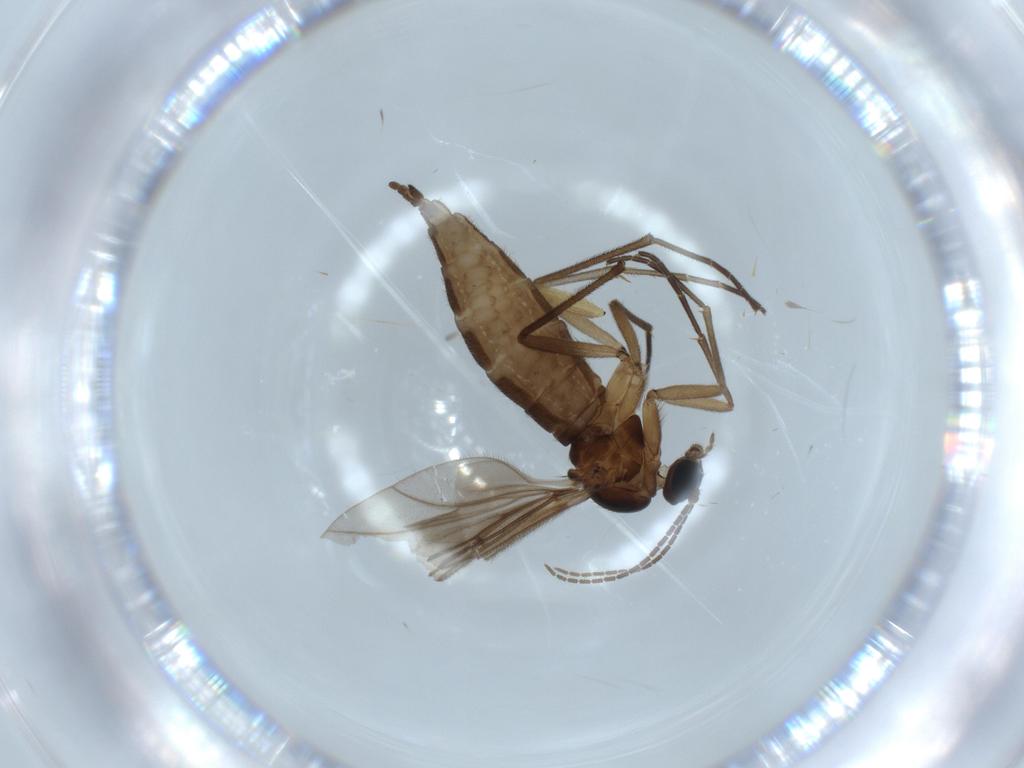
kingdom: Animalia
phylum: Arthropoda
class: Insecta
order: Diptera
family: Sciaridae
